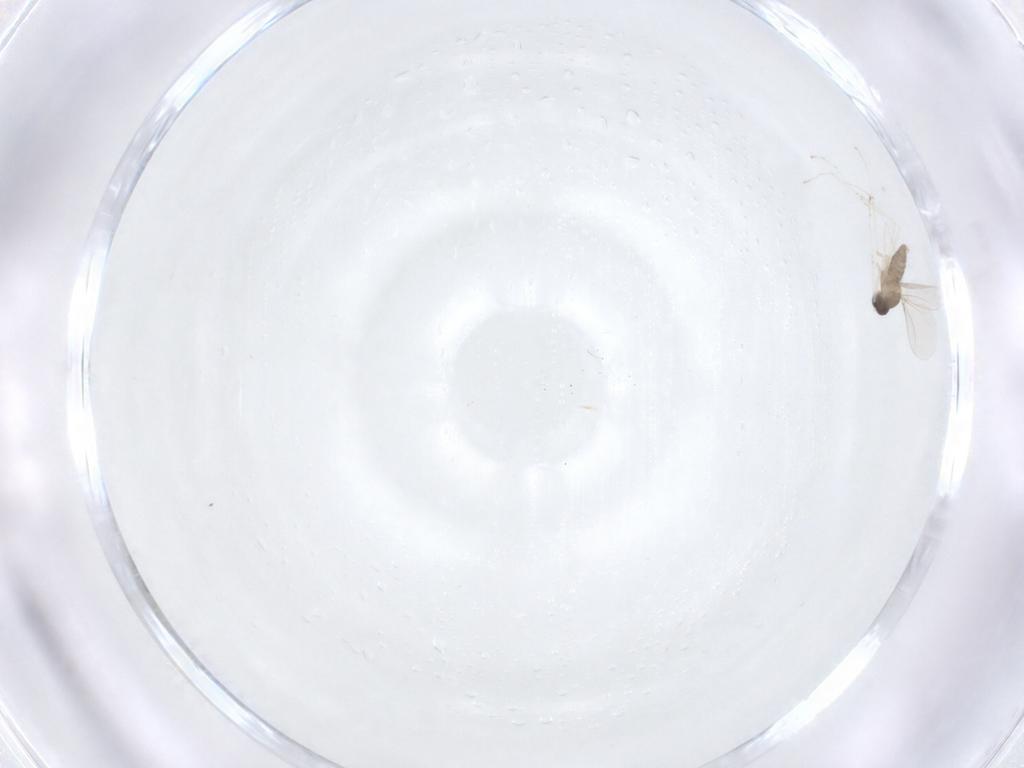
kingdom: Animalia
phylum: Arthropoda
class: Insecta
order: Diptera
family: Cecidomyiidae
